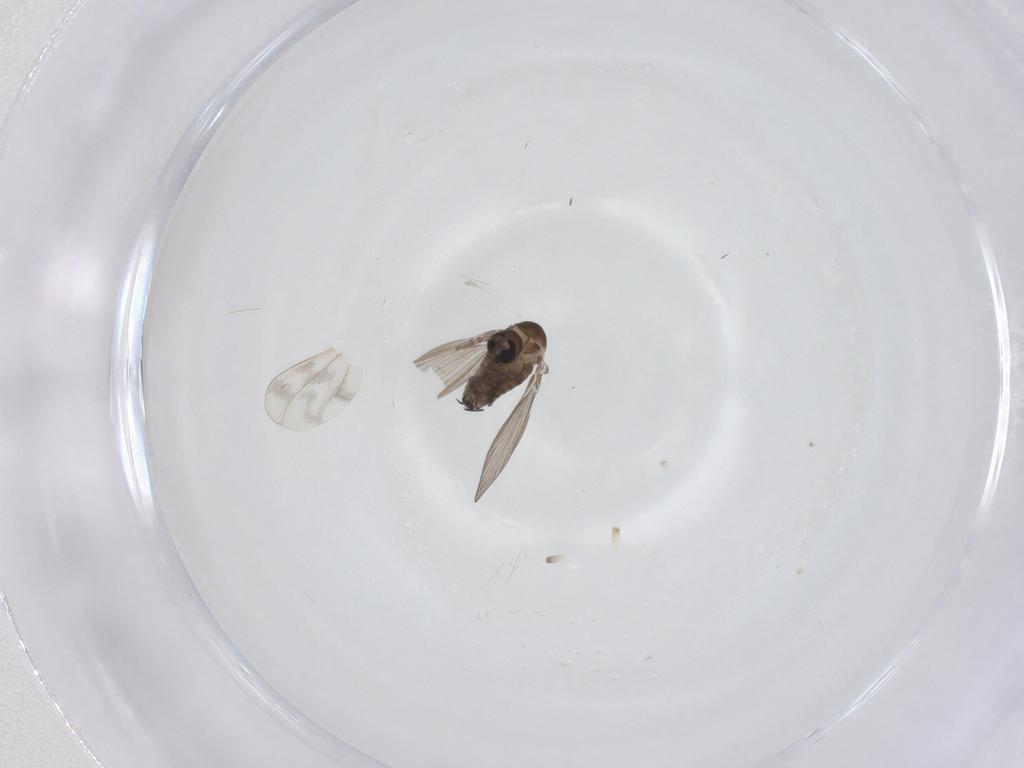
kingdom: Animalia
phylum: Arthropoda
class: Insecta
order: Diptera
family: Cecidomyiidae
